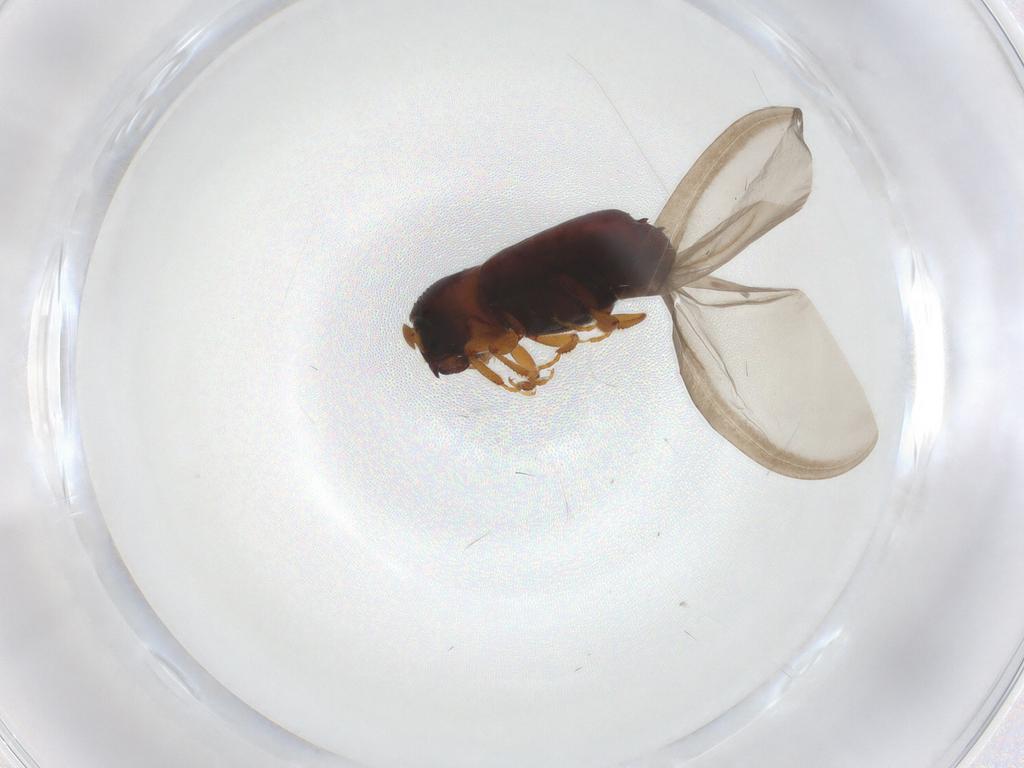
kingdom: Animalia
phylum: Arthropoda
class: Insecta
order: Coleoptera
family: Curculionidae
